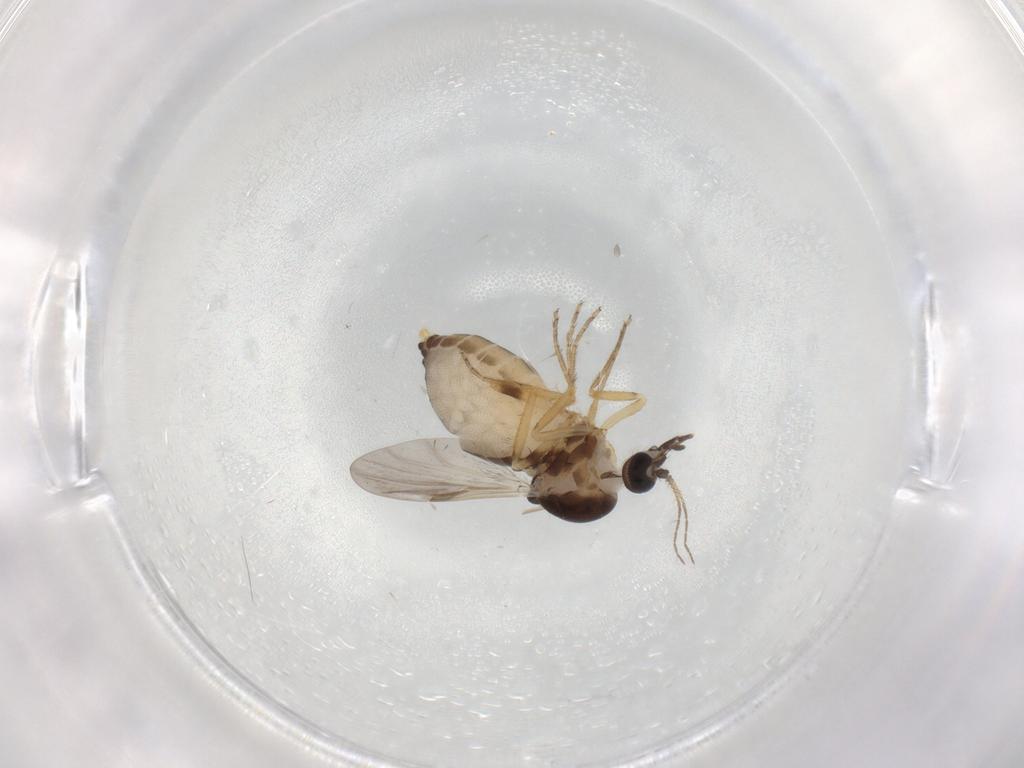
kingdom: Animalia
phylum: Arthropoda
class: Insecta
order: Diptera
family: Ceratopogonidae
